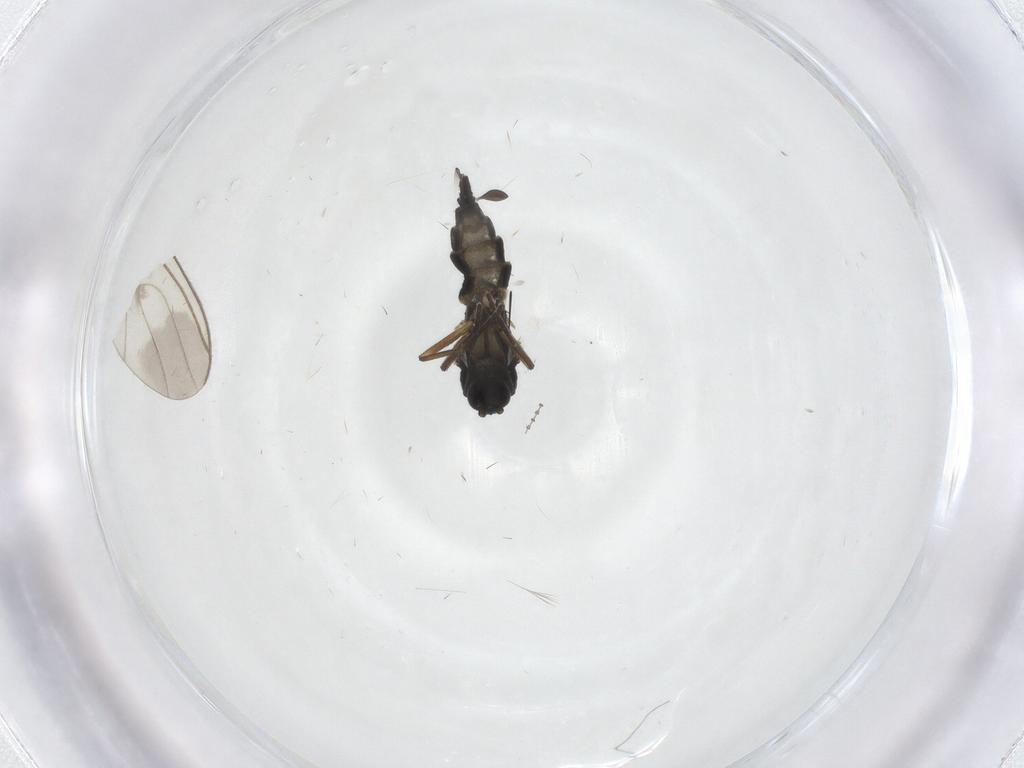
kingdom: Animalia
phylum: Arthropoda
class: Insecta
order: Diptera
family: Sciaridae
